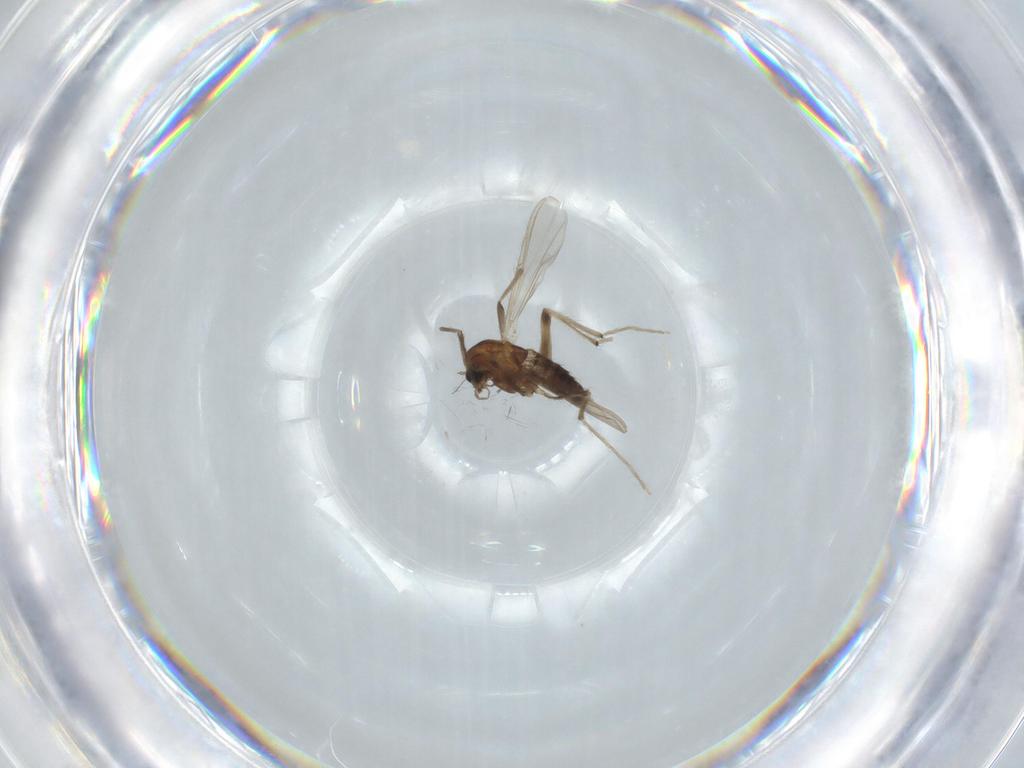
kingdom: Animalia
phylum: Arthropoda
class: Insecta
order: Diptera
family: Chironomidae
